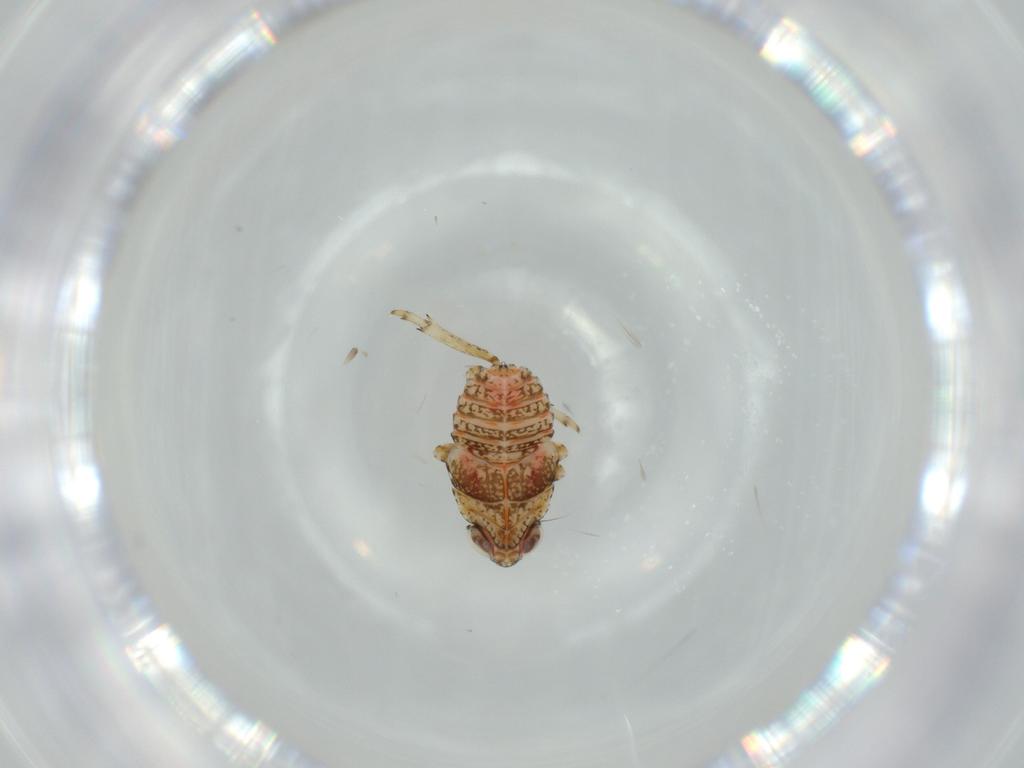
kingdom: Animalia
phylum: Arthropoda
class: Insecta
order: Hemiptera
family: Issidae
